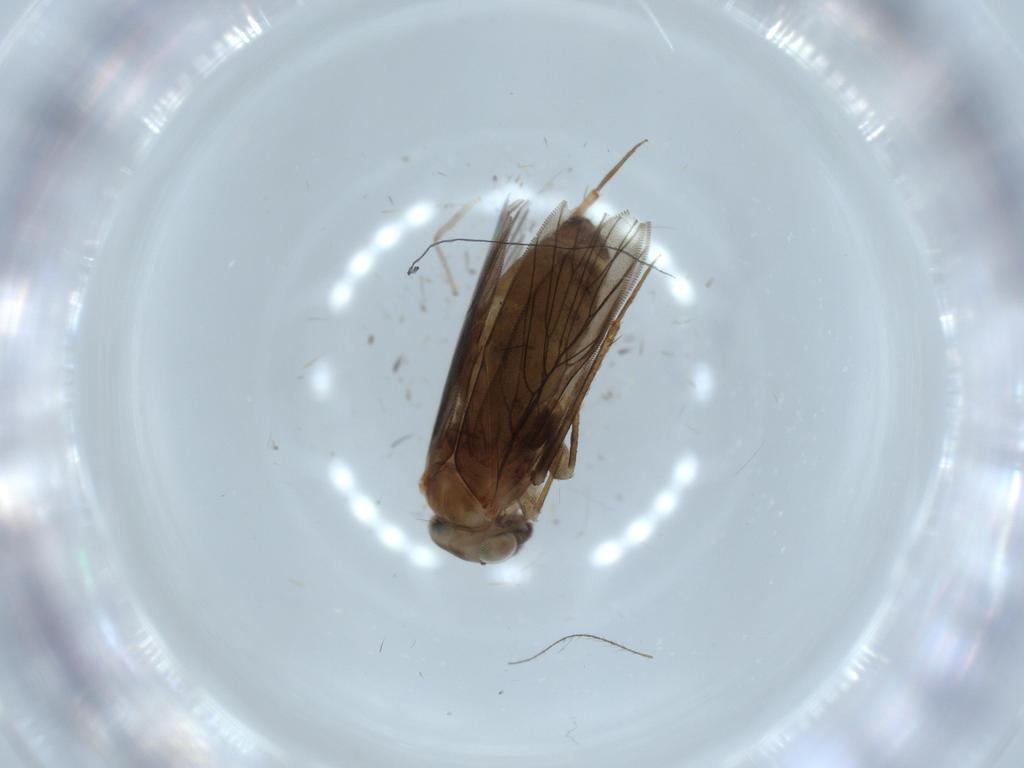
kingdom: Animalia
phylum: Arthropoda
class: Insecta
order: Psocodea
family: Lepidopsocidae
